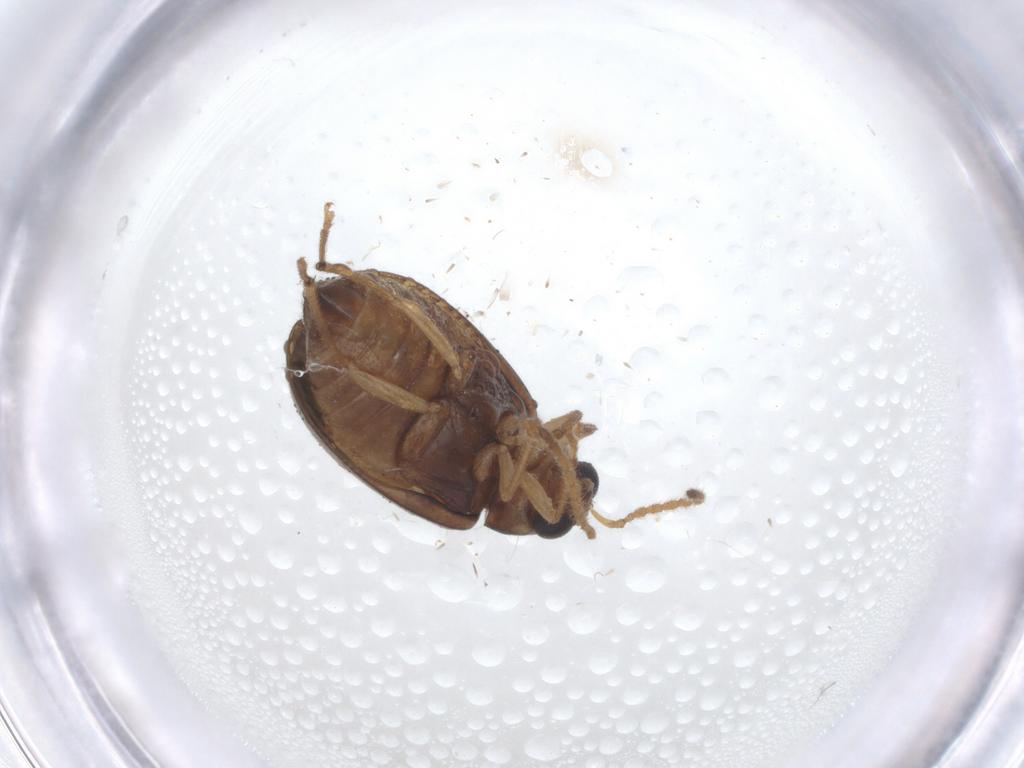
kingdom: Animalia
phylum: Arthropoda
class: Insecta
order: Coleoptera
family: Chrysomelidae
